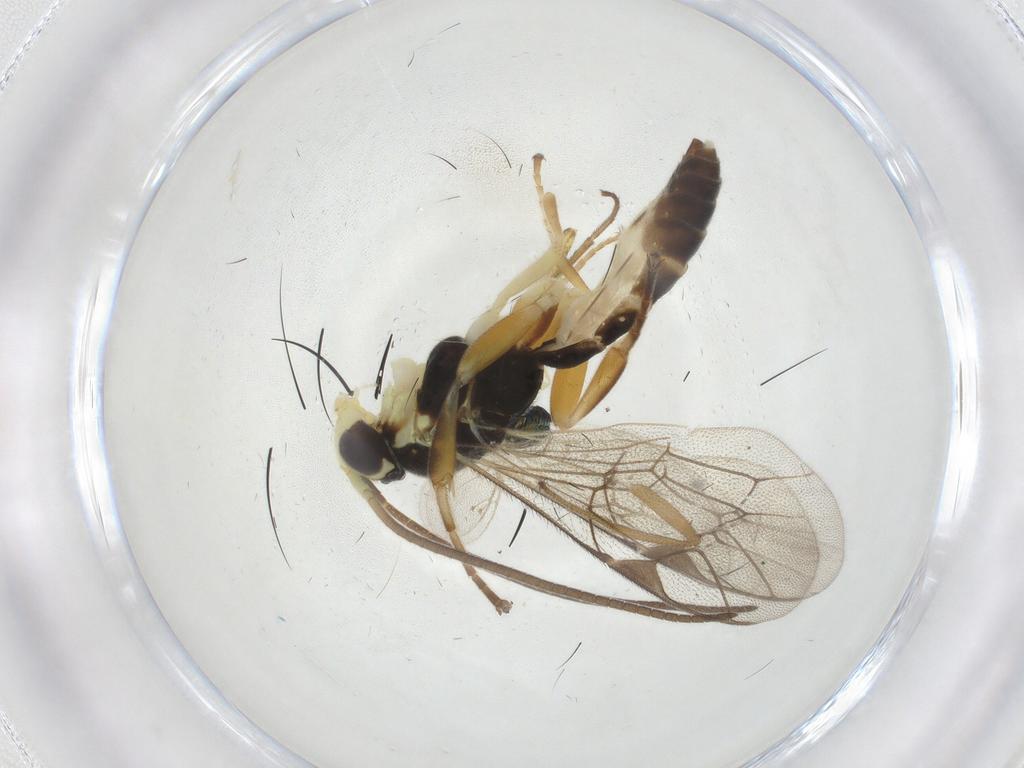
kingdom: Animalia
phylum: Arthropoda
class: Insecta
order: Hymenoptera
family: Ichneumonidae
